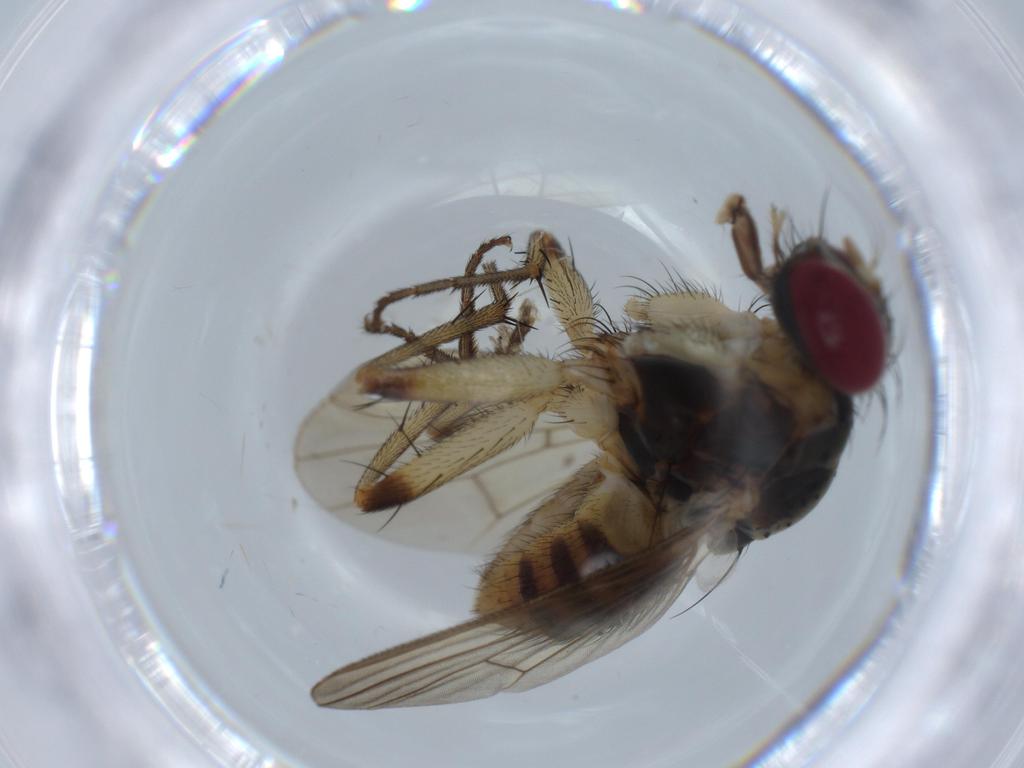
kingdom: Animalia
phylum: Arthropoda
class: Insecta
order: Diptera
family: Muscidae
